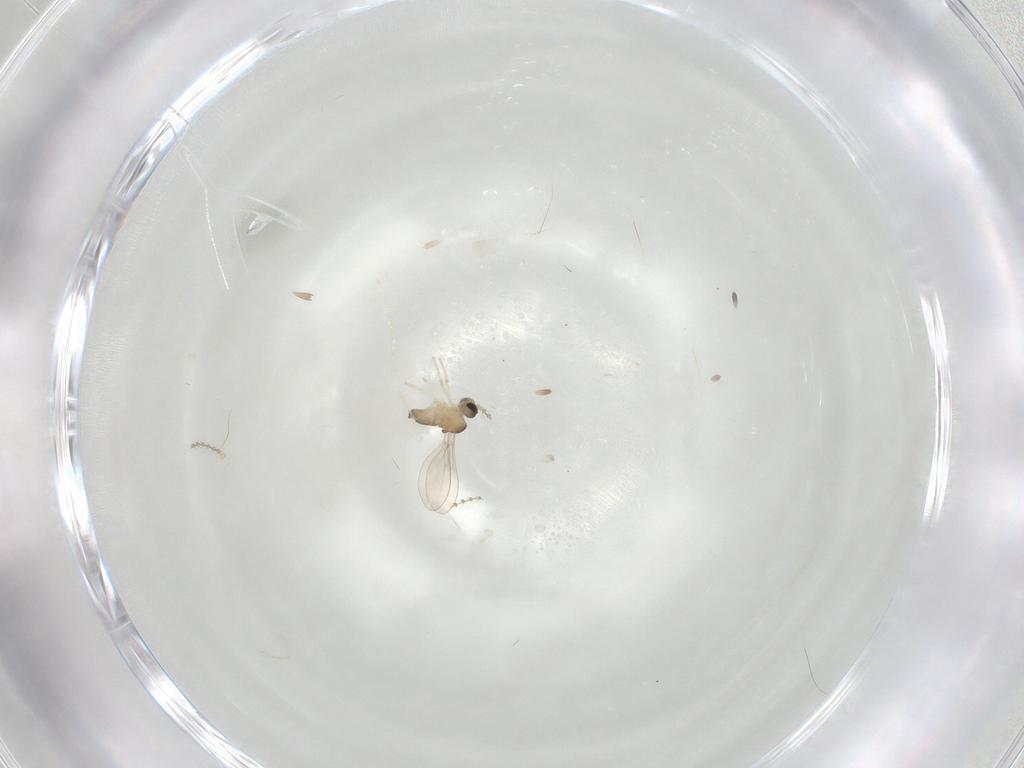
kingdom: Animalia
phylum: Arthropoda
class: Insecta
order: Diptera
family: Cecidomyiidae
